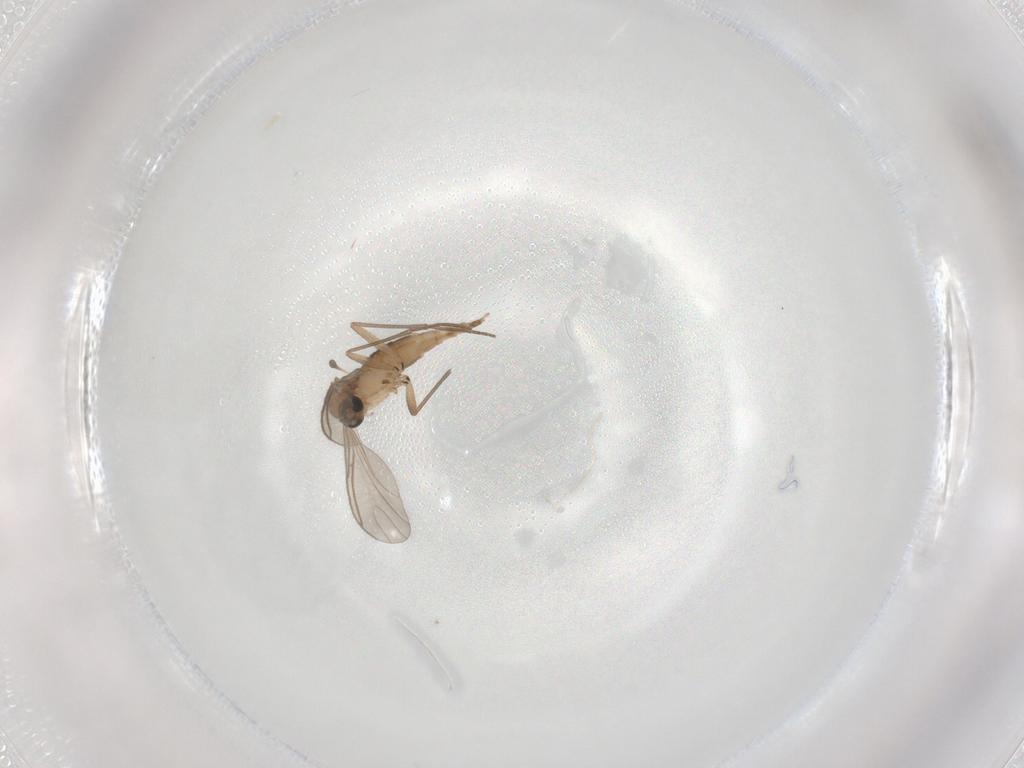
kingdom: Animalia
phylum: Arthropoda
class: Insecta
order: Diptera
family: Sciaridae
